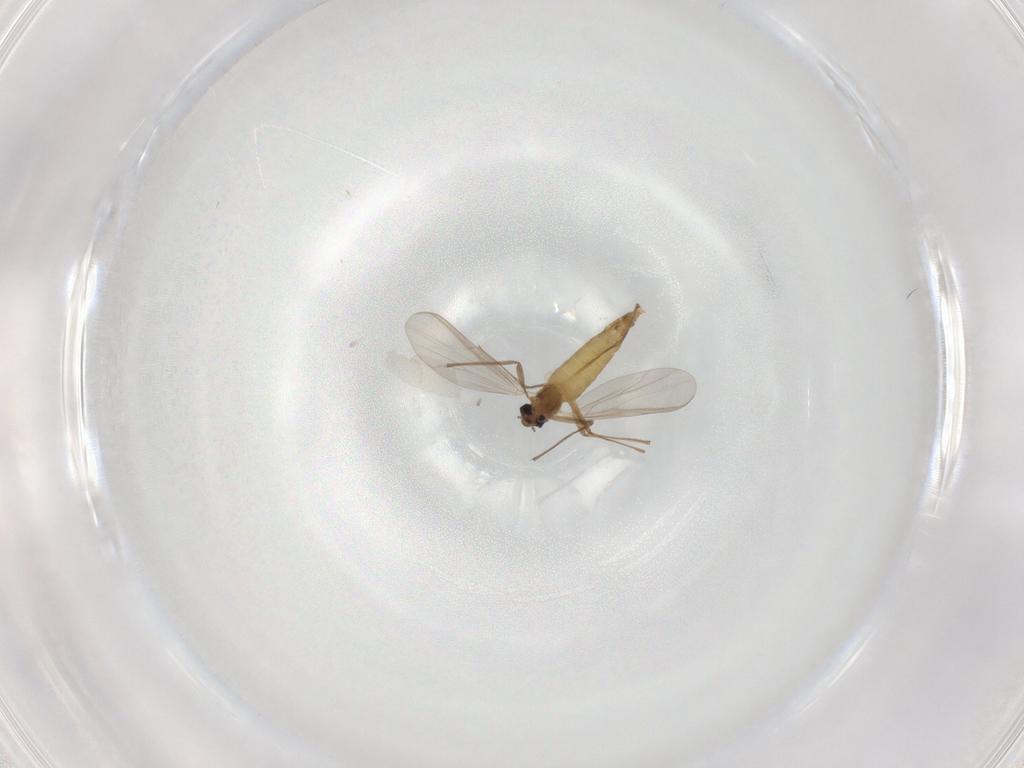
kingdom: Animalia
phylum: Arthropoda
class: Insecta
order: Diptera
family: Chironomidae
